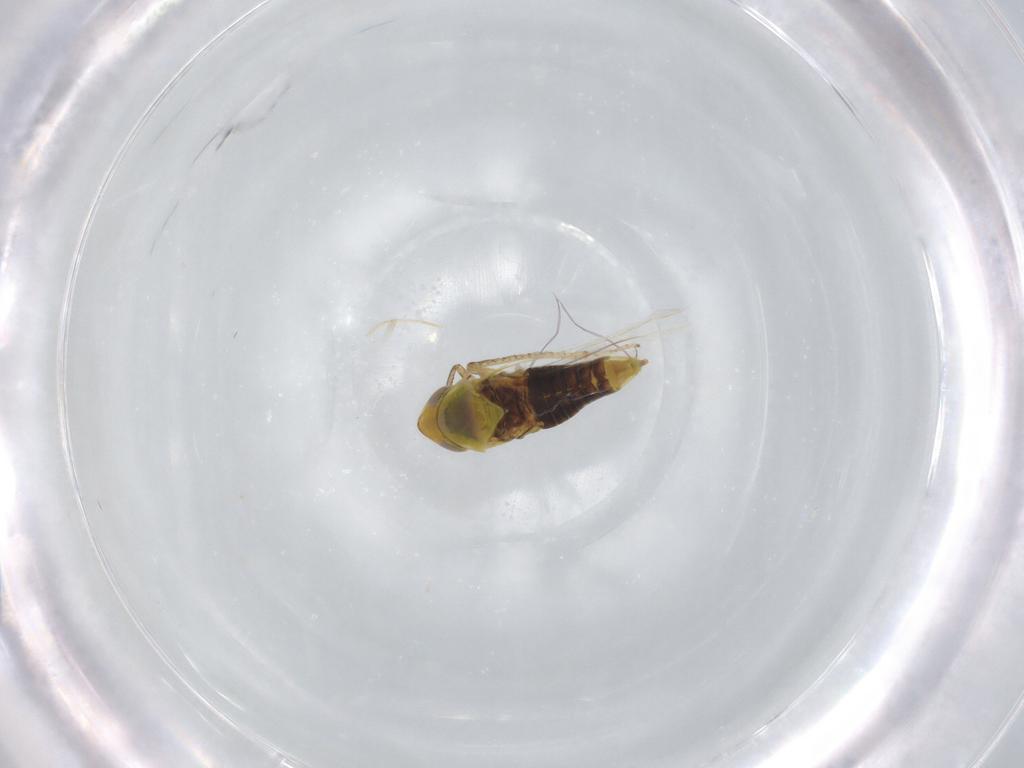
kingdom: Animalia
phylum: Arthropoda
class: Insecta
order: Hemiptera
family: Cicadellidae
